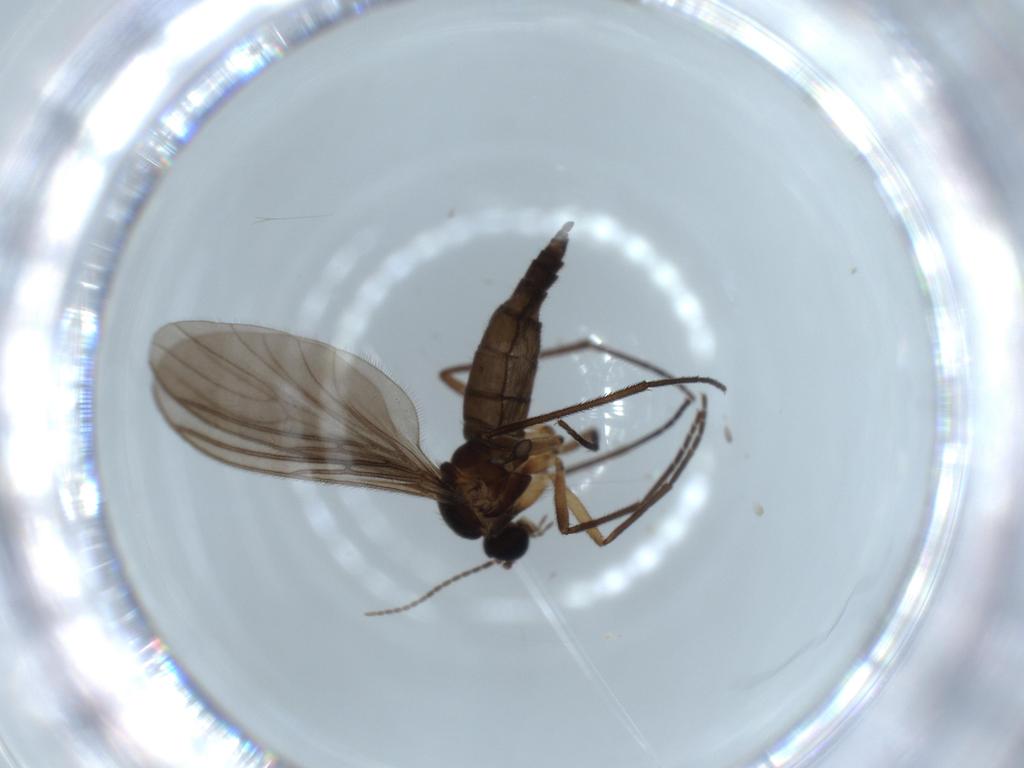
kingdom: Animalia
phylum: Arthropoda
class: Insecta
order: Diptera
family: Sciaridae
